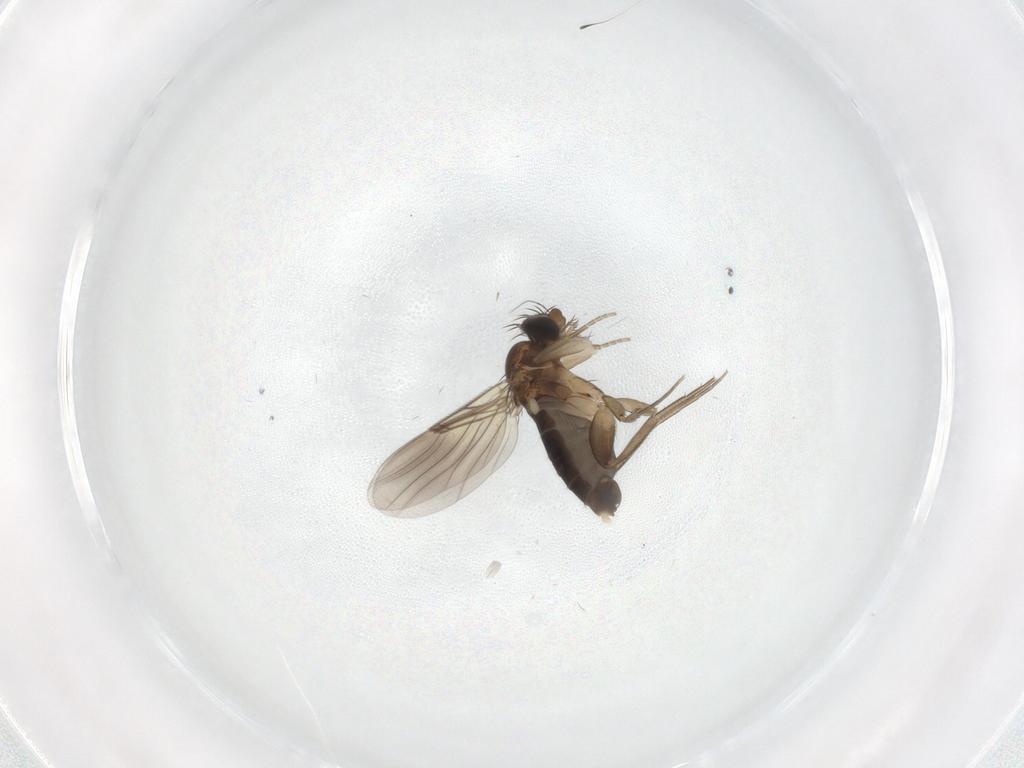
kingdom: Animalia
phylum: Arthropoda
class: Insecta
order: Diptera
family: Phoridae
